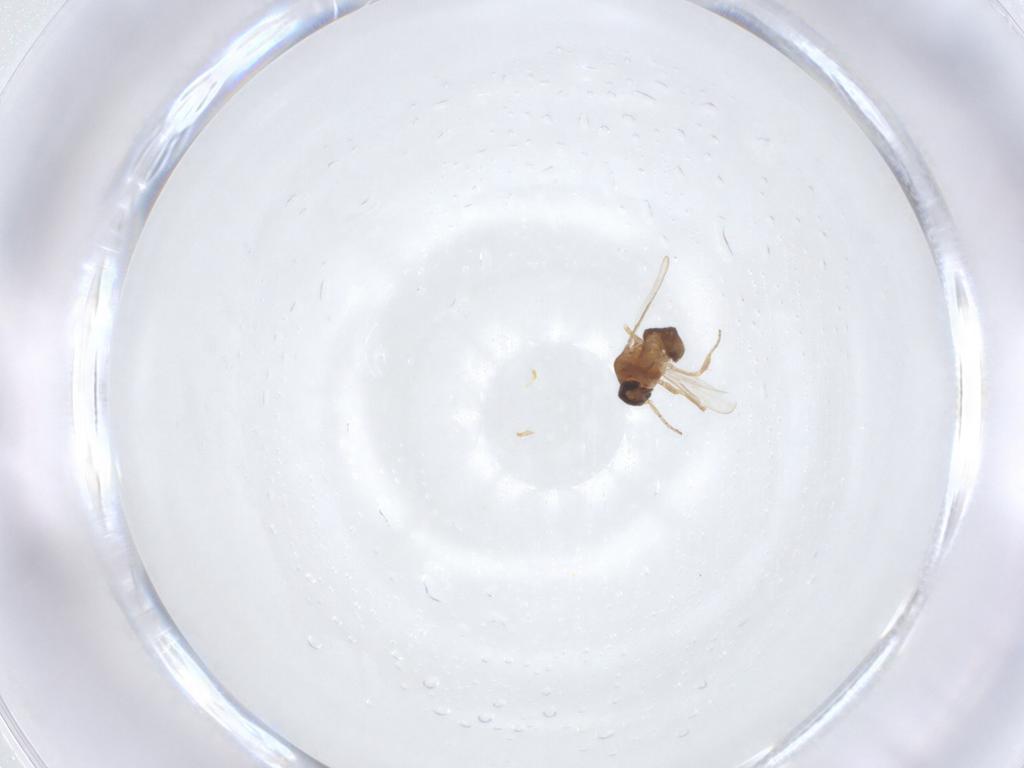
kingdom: Animalia
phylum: Arthropoda
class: Insecta
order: Diptera
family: Ceratopogonidae
